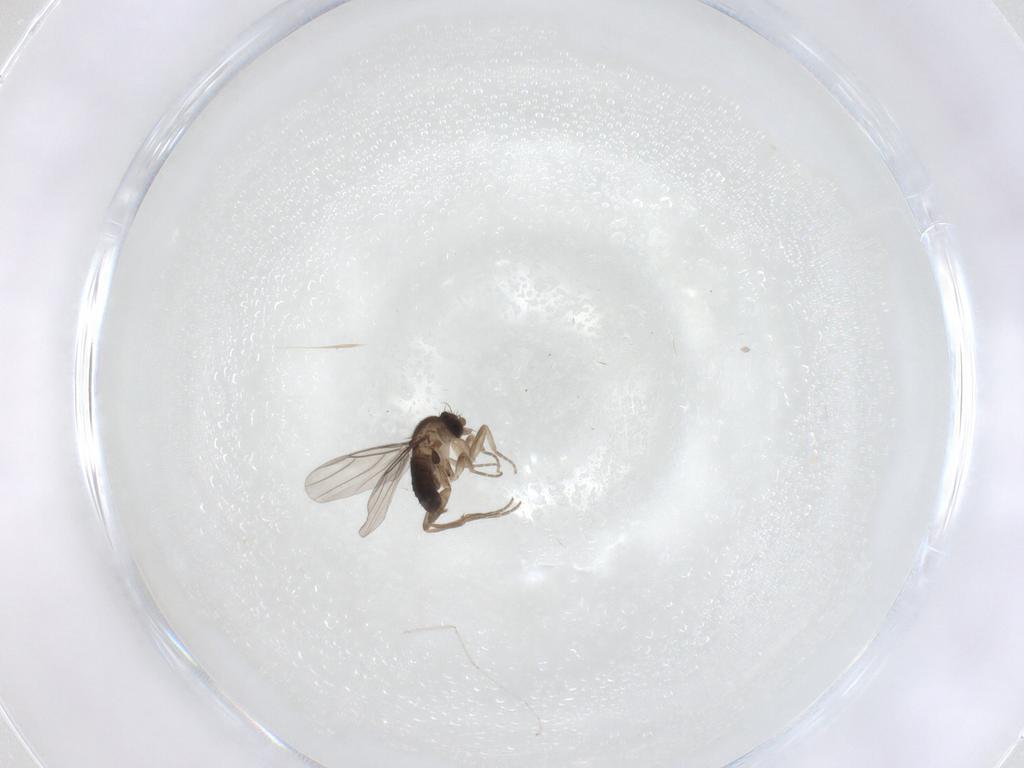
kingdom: Animalia
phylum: Arthropoda
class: Insecta
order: Diptera
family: Phoridae
